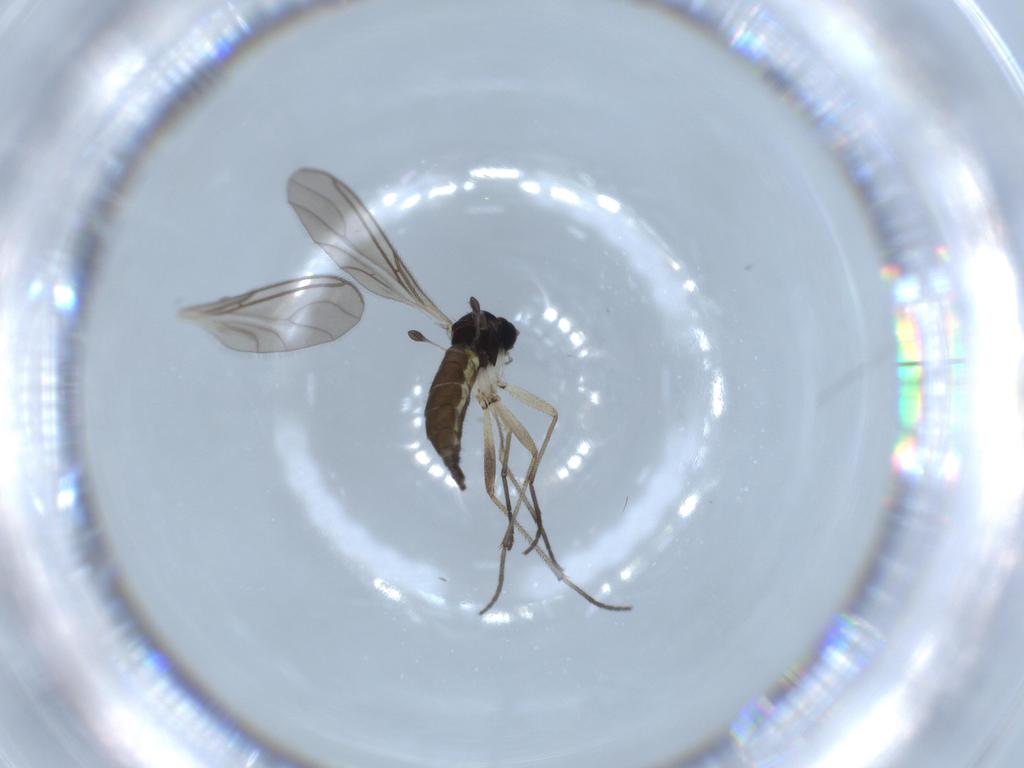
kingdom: Animalia
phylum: Arthropoda
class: Insecta
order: Diptera
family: Sciaridae
